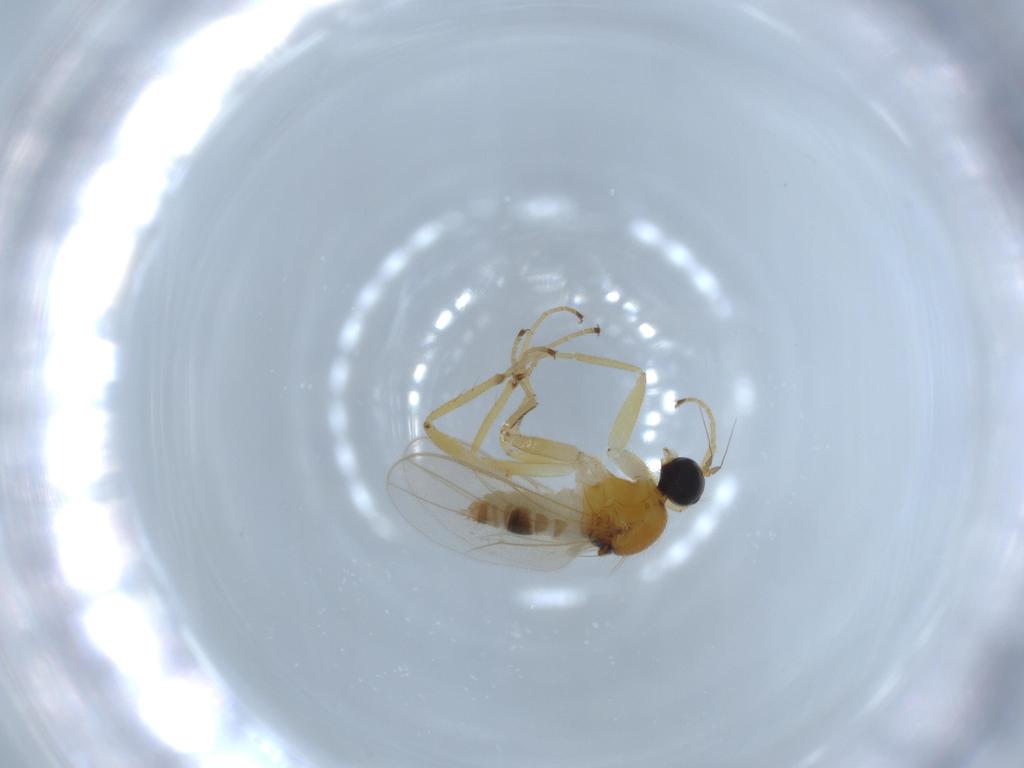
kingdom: Animalia
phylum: Arthropoda
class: Insecta
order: Diptera
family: Hybotidae
